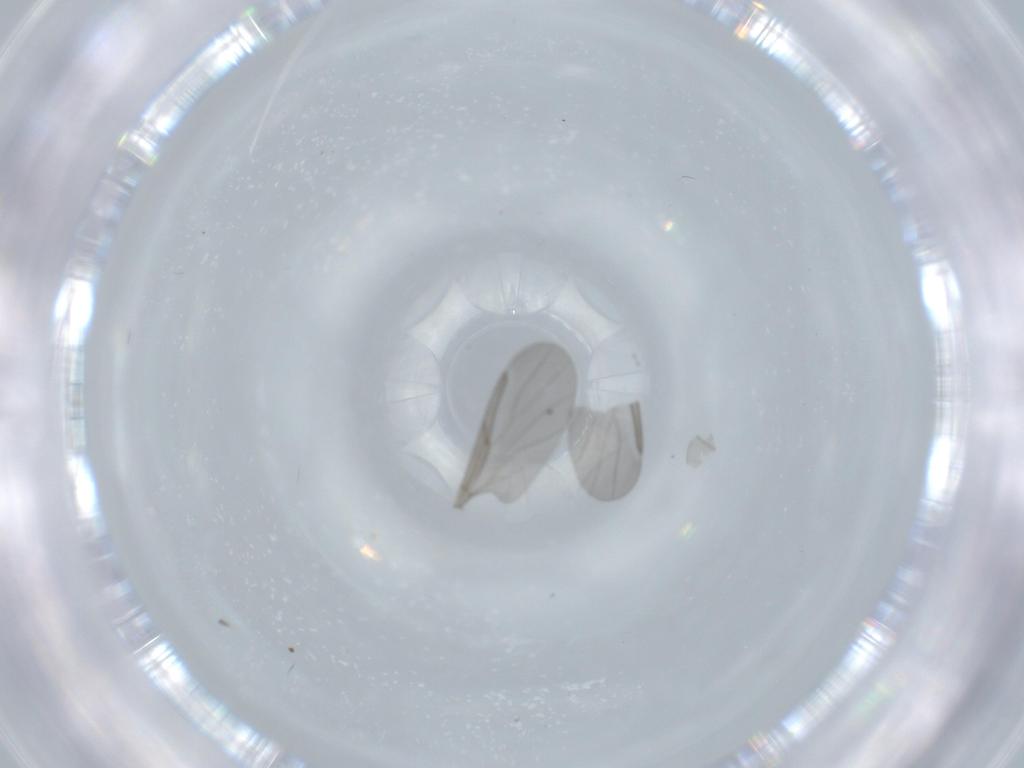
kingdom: Animalia
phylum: Arthropoda
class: Insecta
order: Diptera
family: Cecidomyiidae
